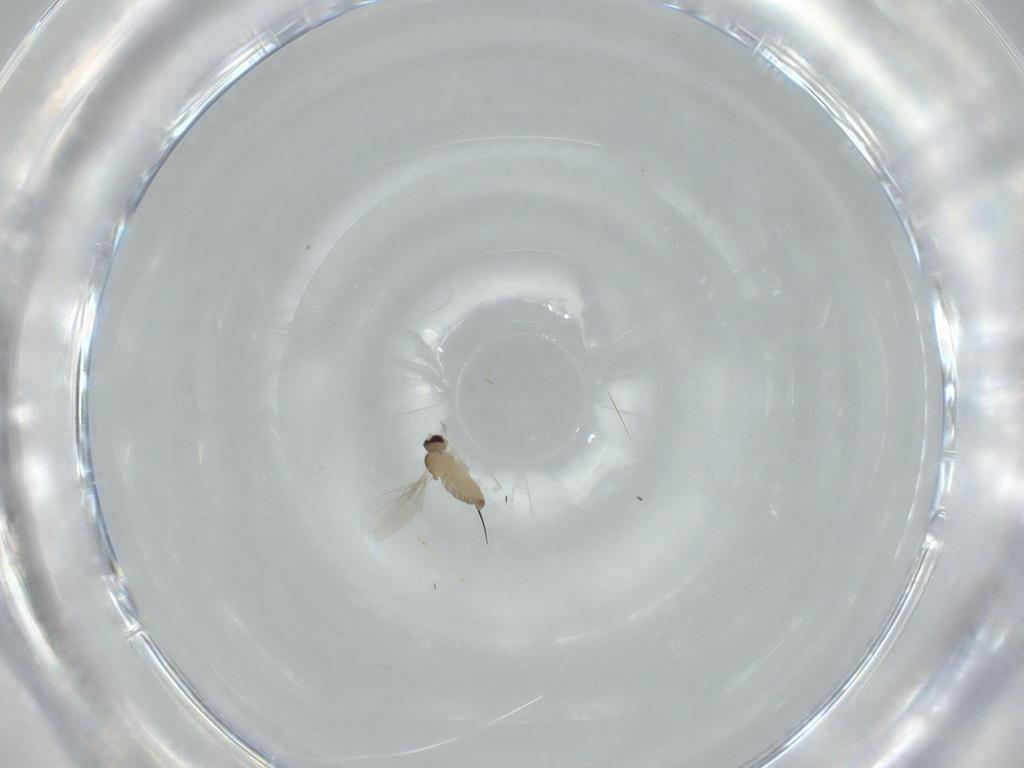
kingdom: Animalia
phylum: Arthropoda
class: Insecta
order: Diptera
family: Cecidomyiidae
